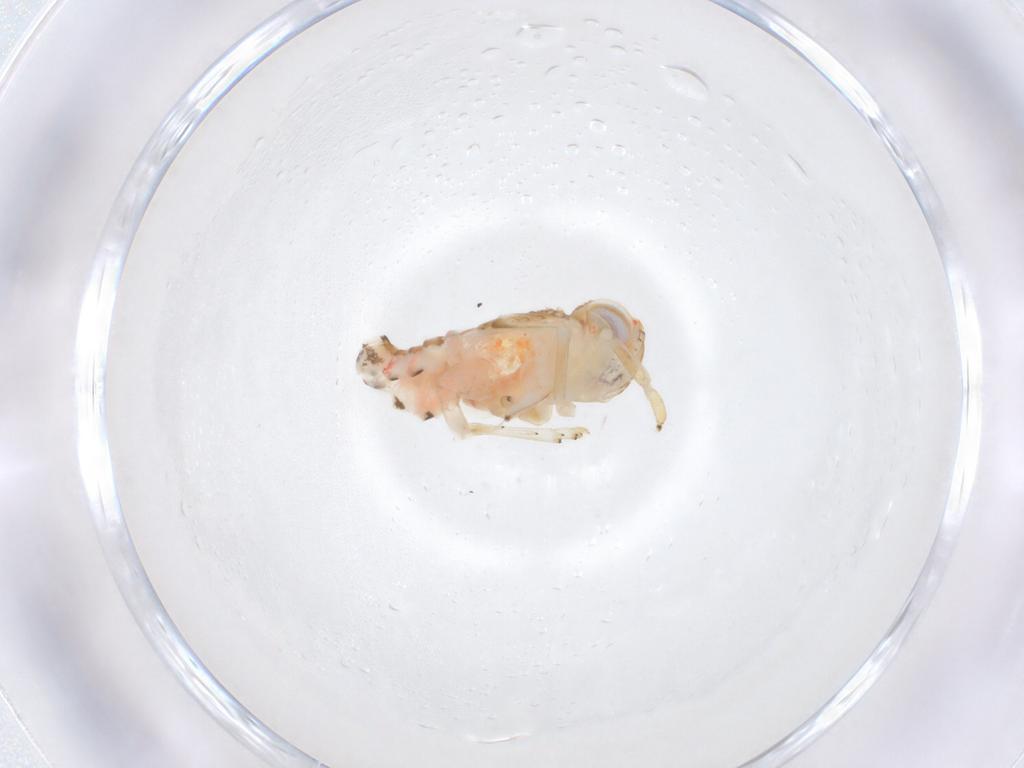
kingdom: Animalia
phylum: Arthropoda
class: Insecta
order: Hemiptera
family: Nogodinidae
